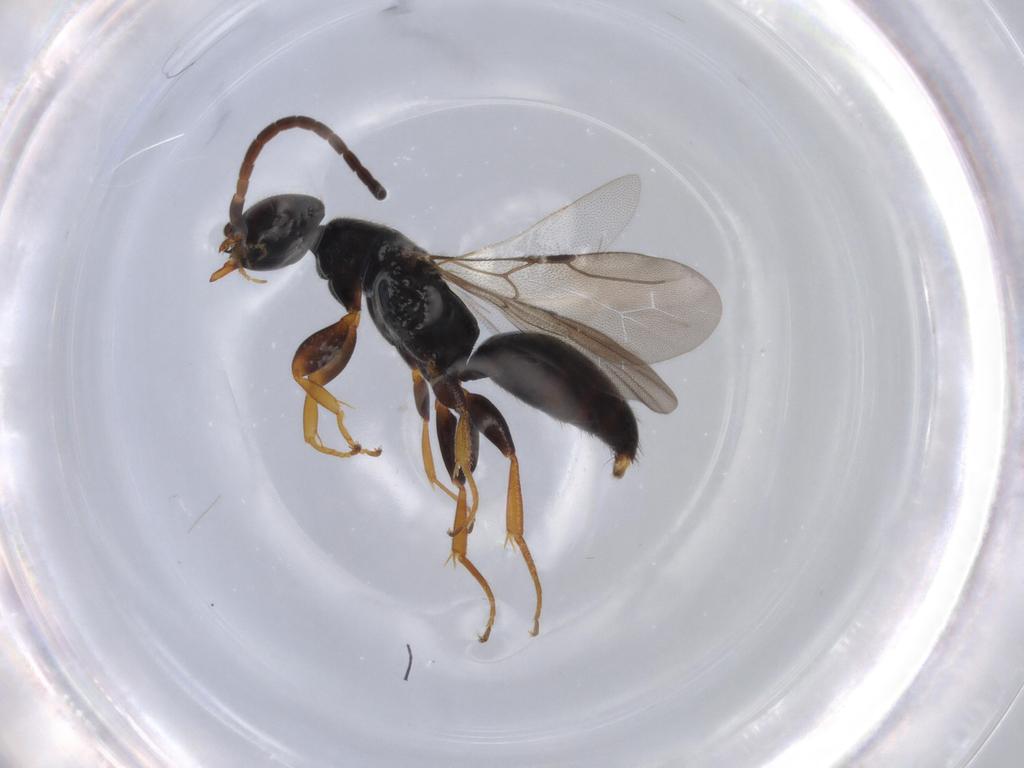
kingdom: Animalia
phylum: Arthropoda
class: Insecta
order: Hymenoptera
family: Bethylidae
